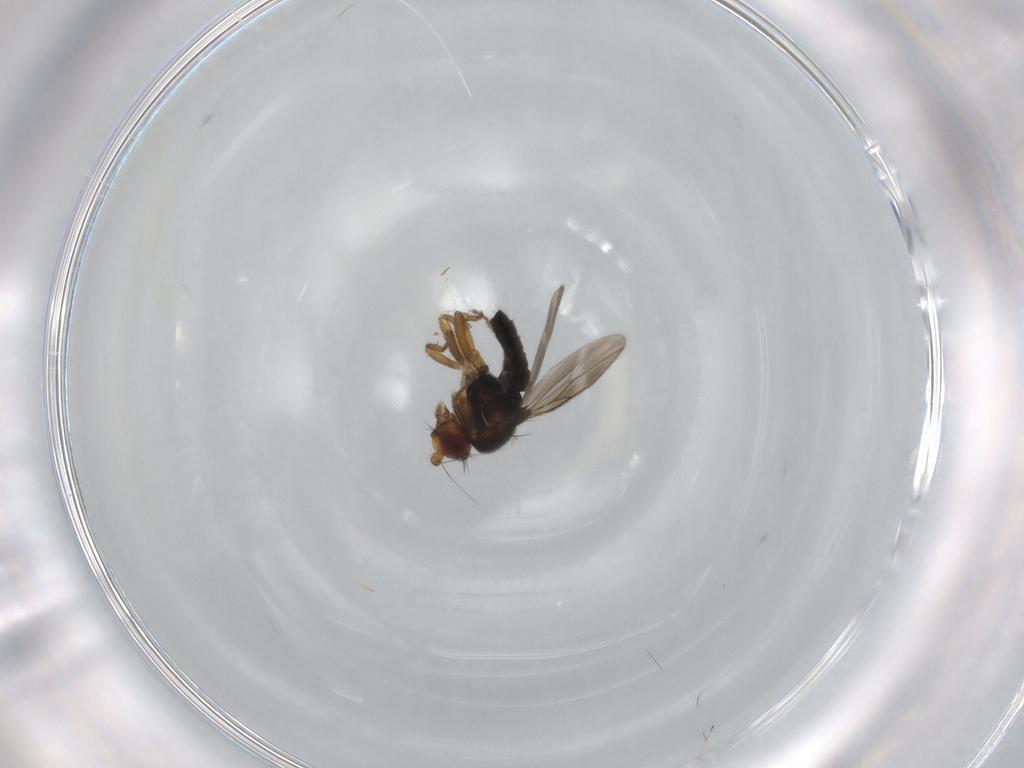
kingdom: Animalia
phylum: Arthropoda
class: Insecta
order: Diptera
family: Sphaeroceridae
